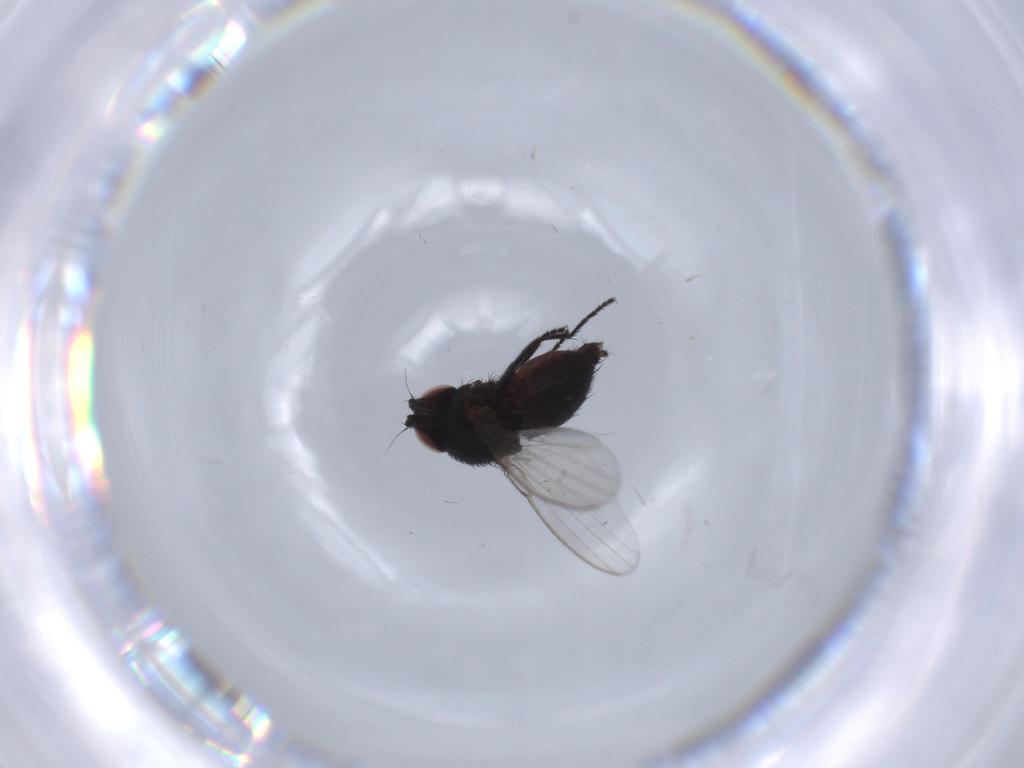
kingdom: Animalia
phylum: Arthropoda
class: Insecta
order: Diptera
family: Milichiidae
